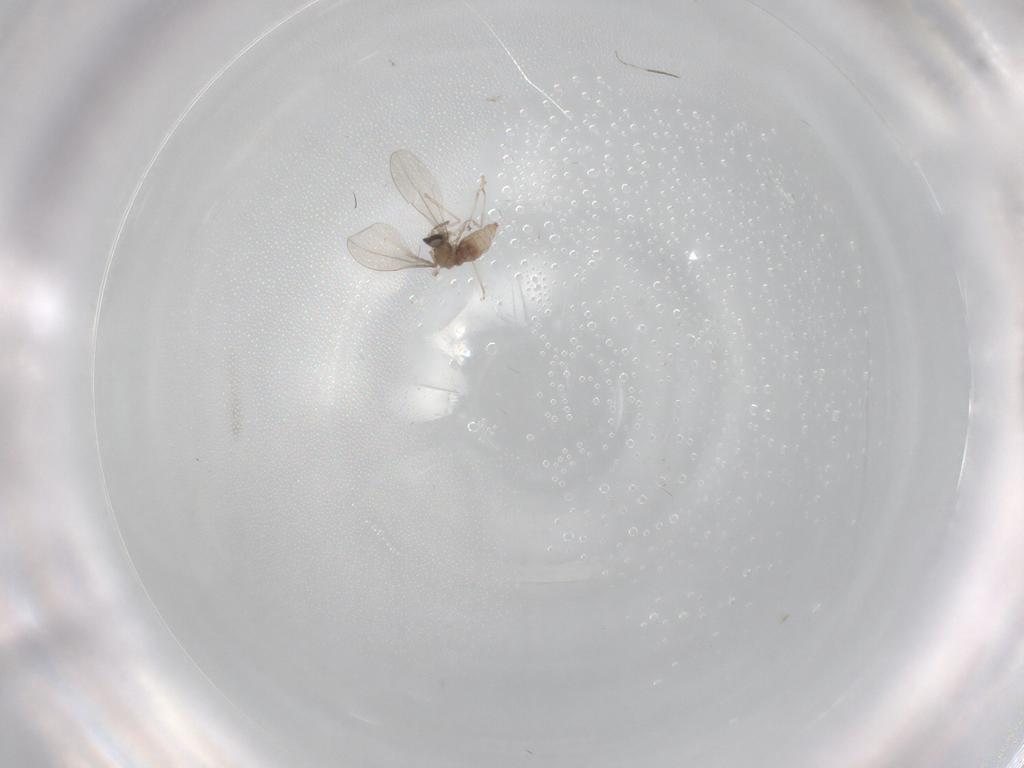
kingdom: Animalia
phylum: Arthropoda
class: Insecta
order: Diptera
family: Cecidomyiidae
